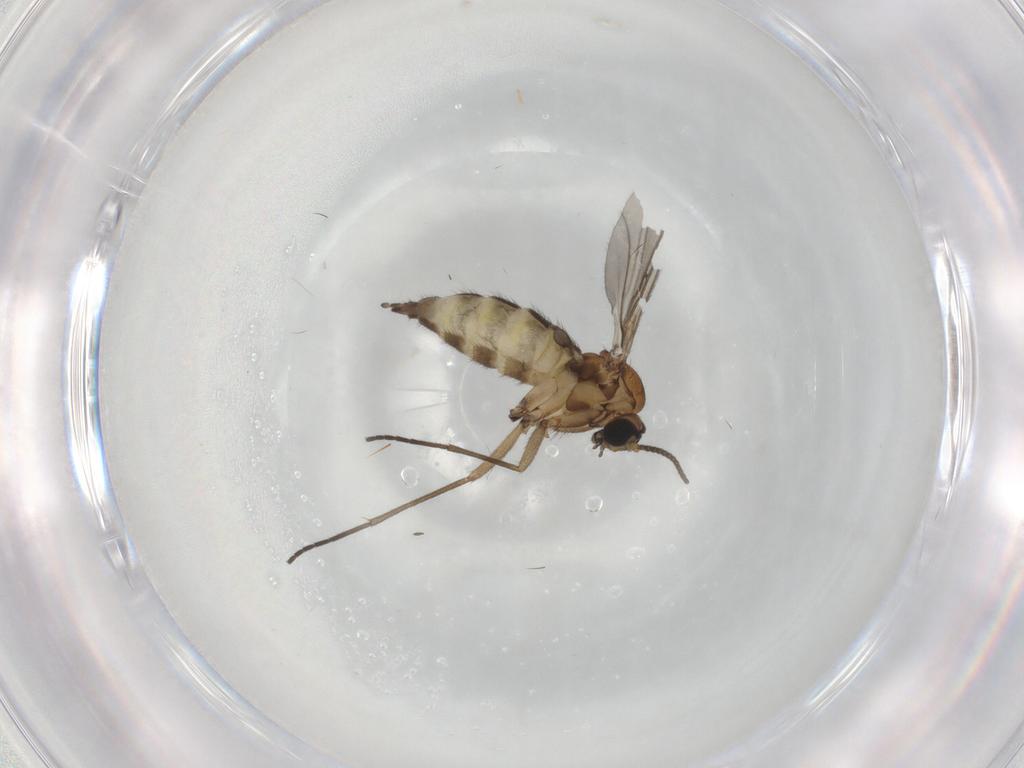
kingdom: Animalia
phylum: Arthropoda
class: Insecta
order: Diptera
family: Sciaridae
